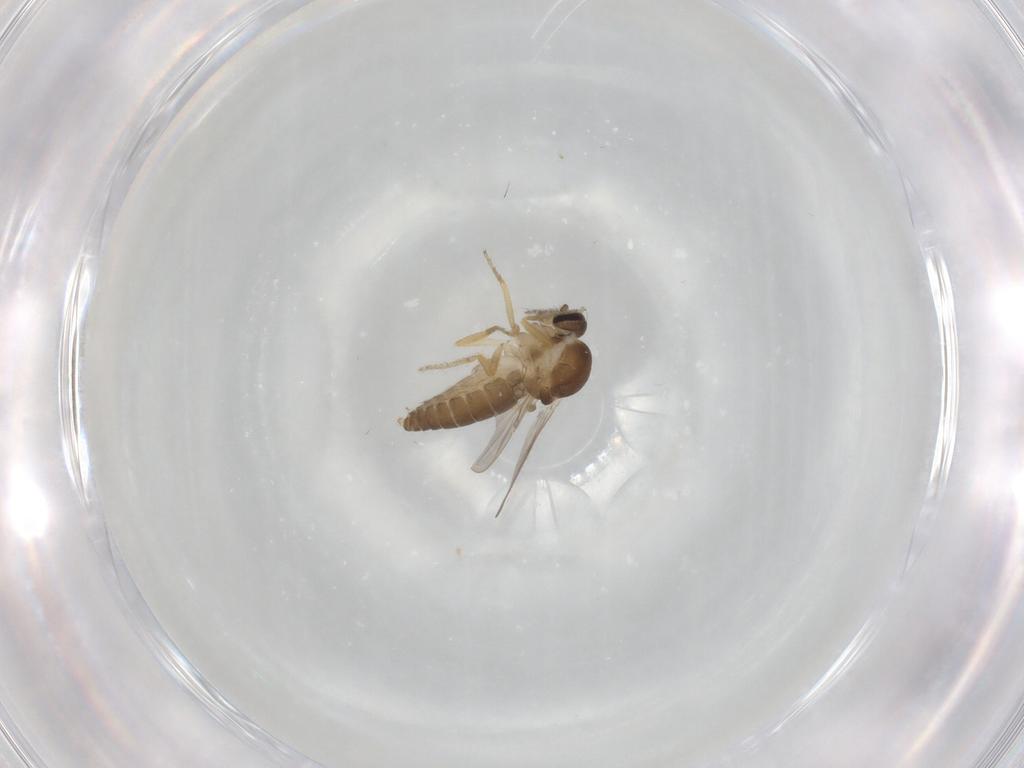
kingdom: Animalia
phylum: Arthropoda
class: Insecta
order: Diptera
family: Ceratopogonidae
